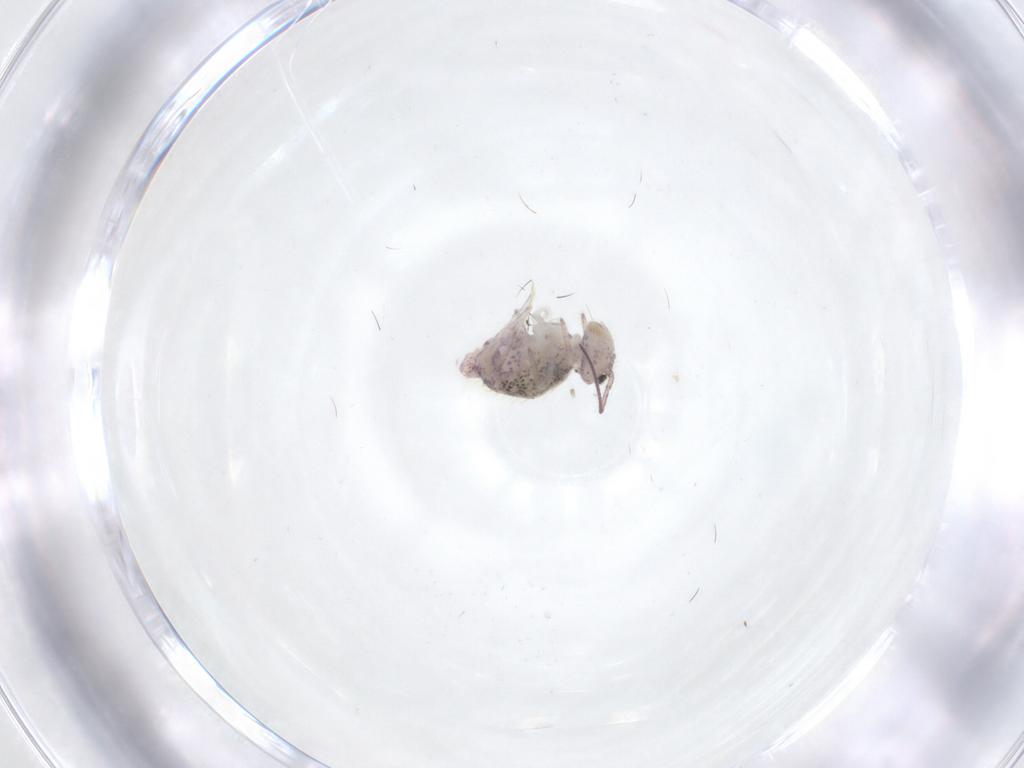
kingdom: Animalia
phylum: Arthropoda
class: Collembola
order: Symphypleona
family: Sminthuridae
